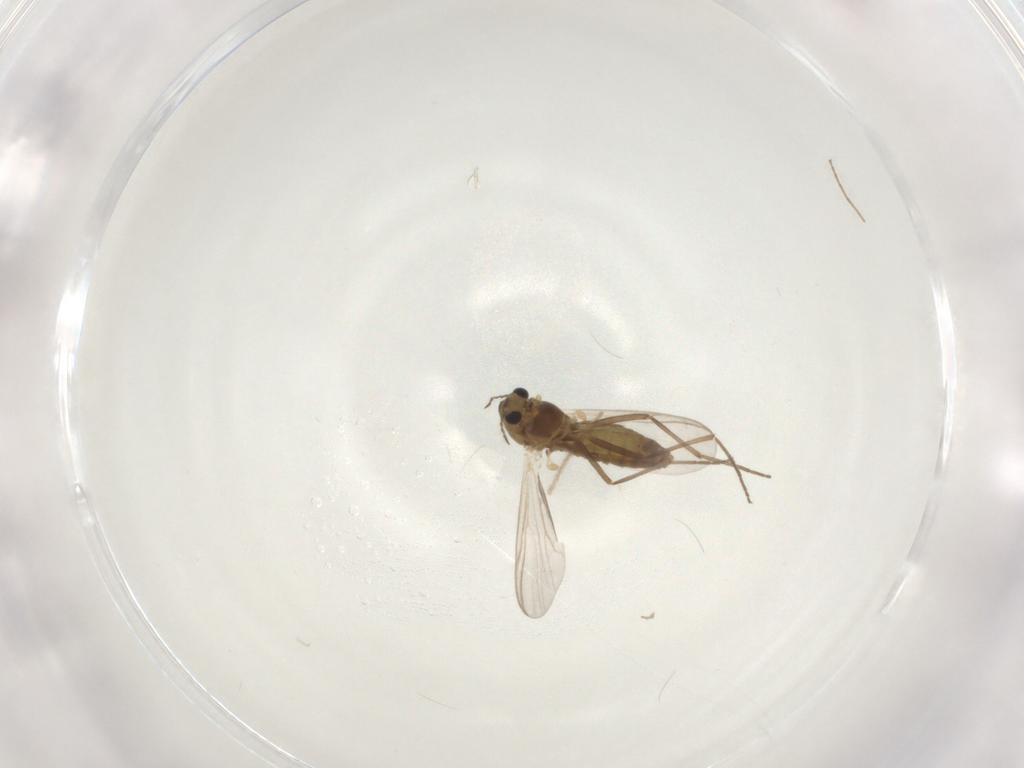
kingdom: Animalia
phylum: Arthropoda
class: Insecta
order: Diptera
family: Chironomidae
